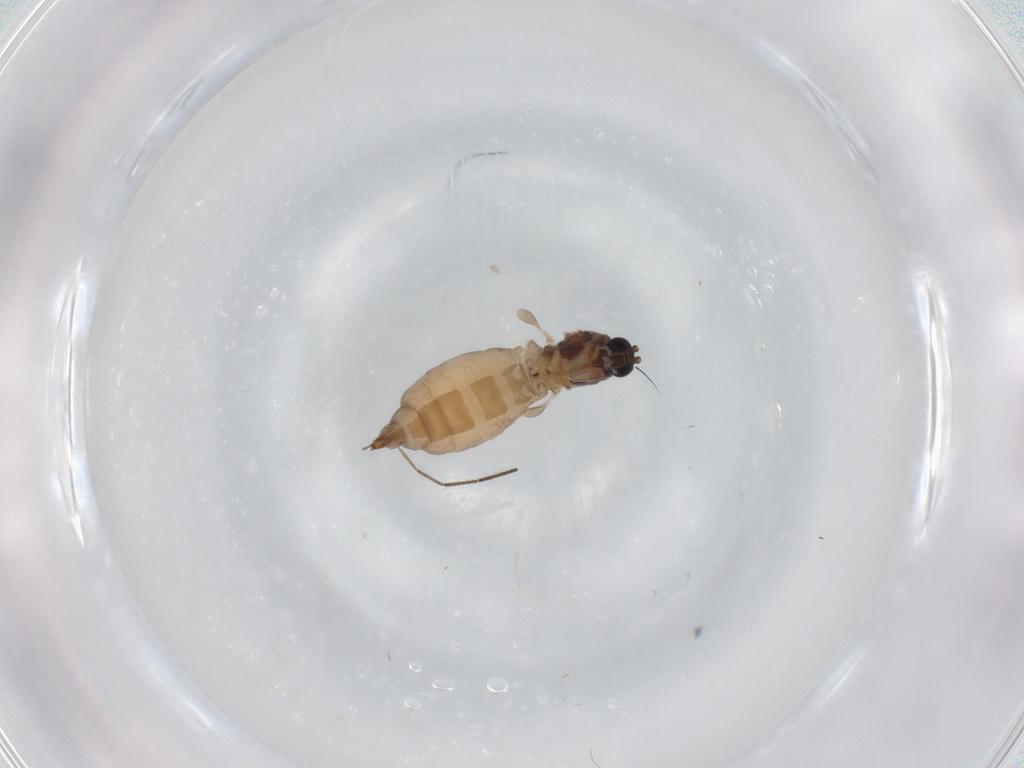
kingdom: Animalia
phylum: Arthropoda
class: Insecta
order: Diptera
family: Sciaridae
